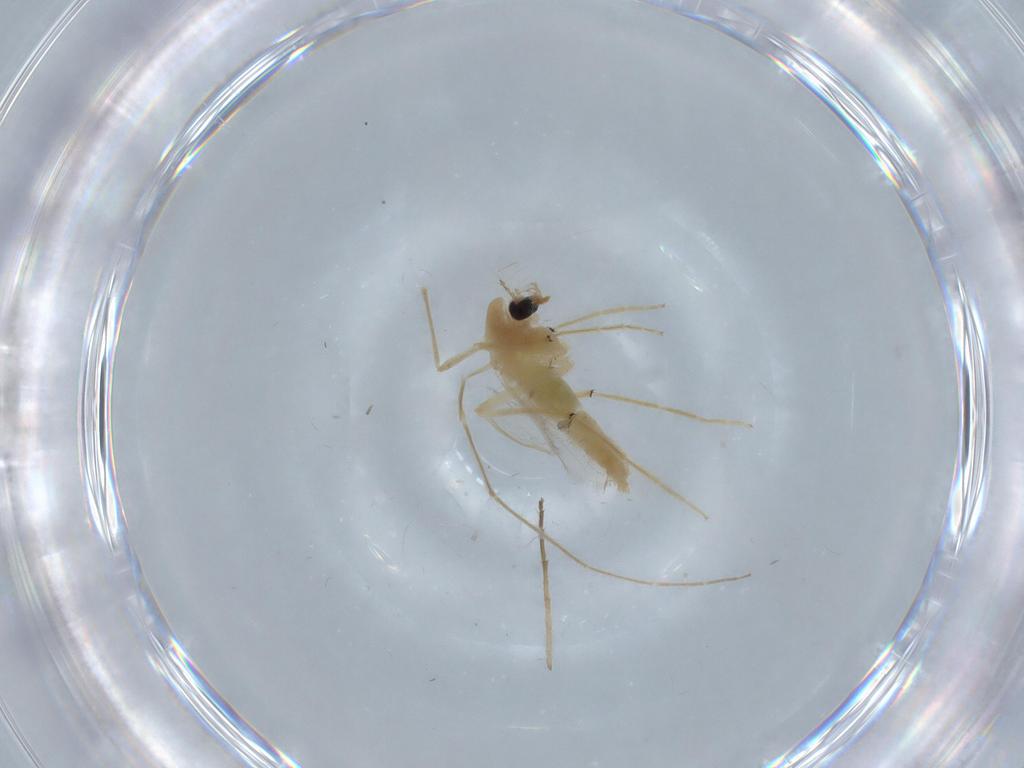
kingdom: Animalia
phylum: Arthropoda
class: Insecta
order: Diptera
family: Chironomidae
